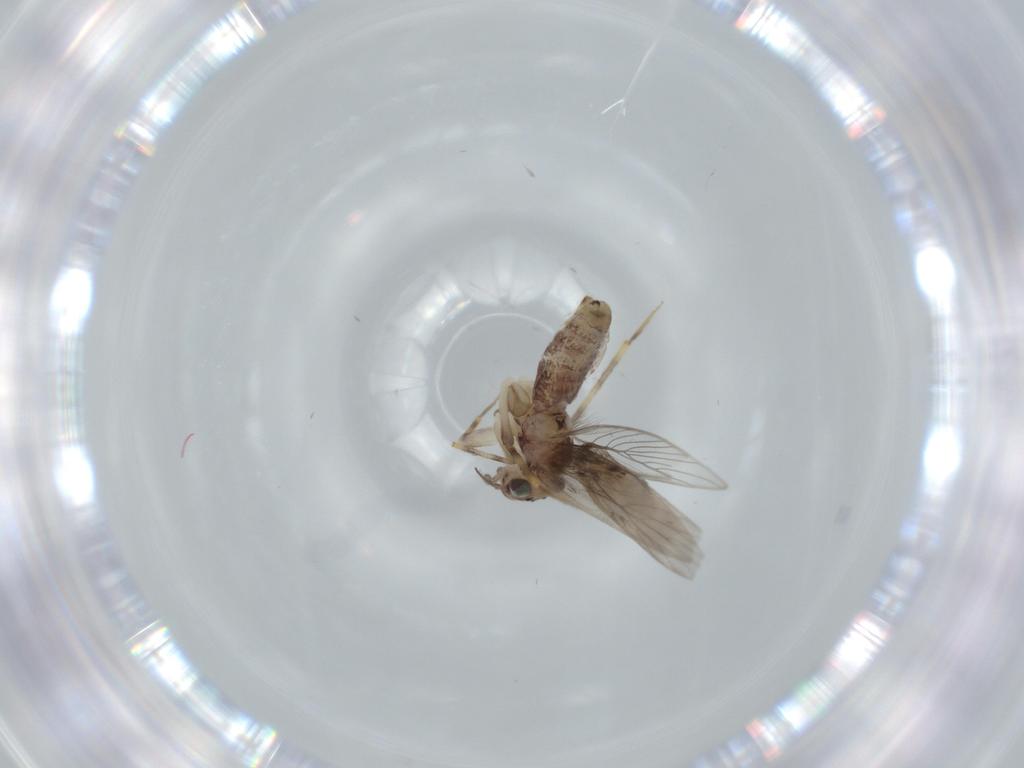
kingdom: Animalia
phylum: Arthropoda
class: Insecta
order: Psocodea
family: Lepidopsocidae
